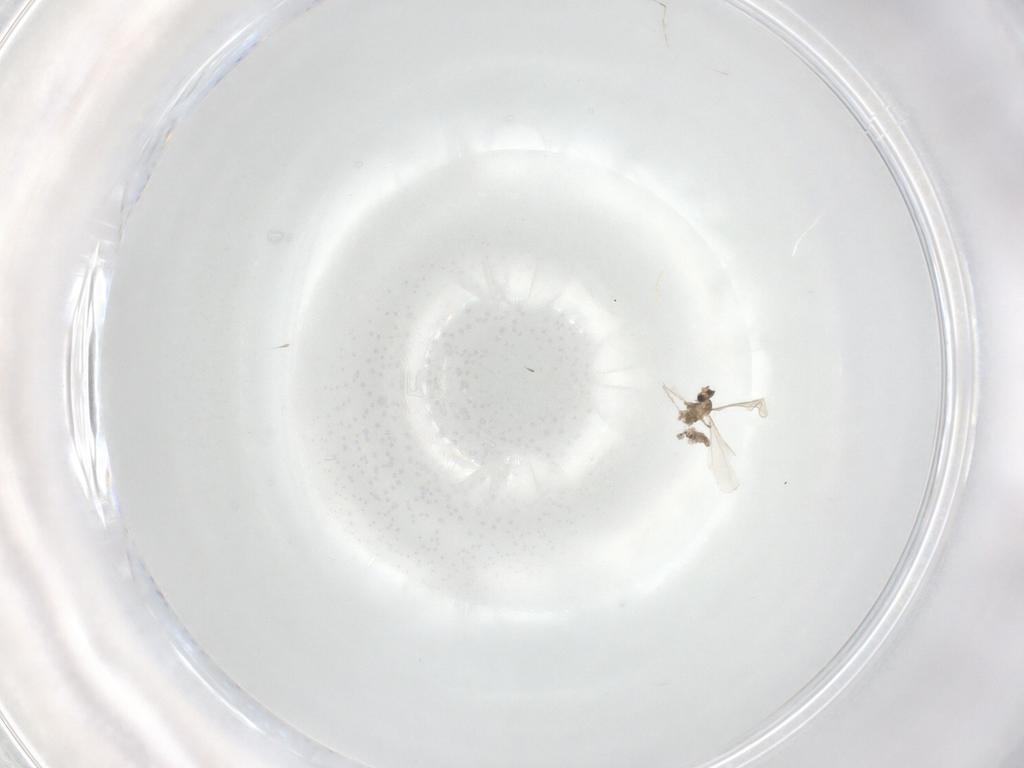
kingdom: Animalia
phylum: Arthropoda
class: Insecta
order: Diptera
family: Cecidomyiidae
